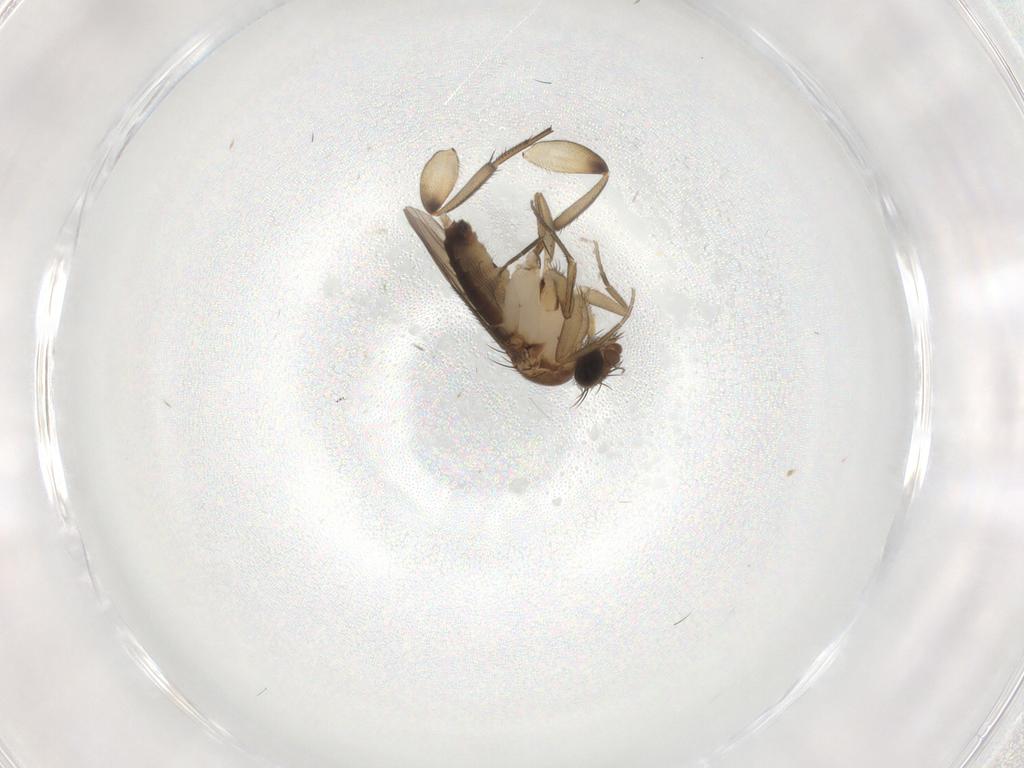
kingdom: Animalia
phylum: Arthropoda
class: Insecta
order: Diptera
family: Phoridae
